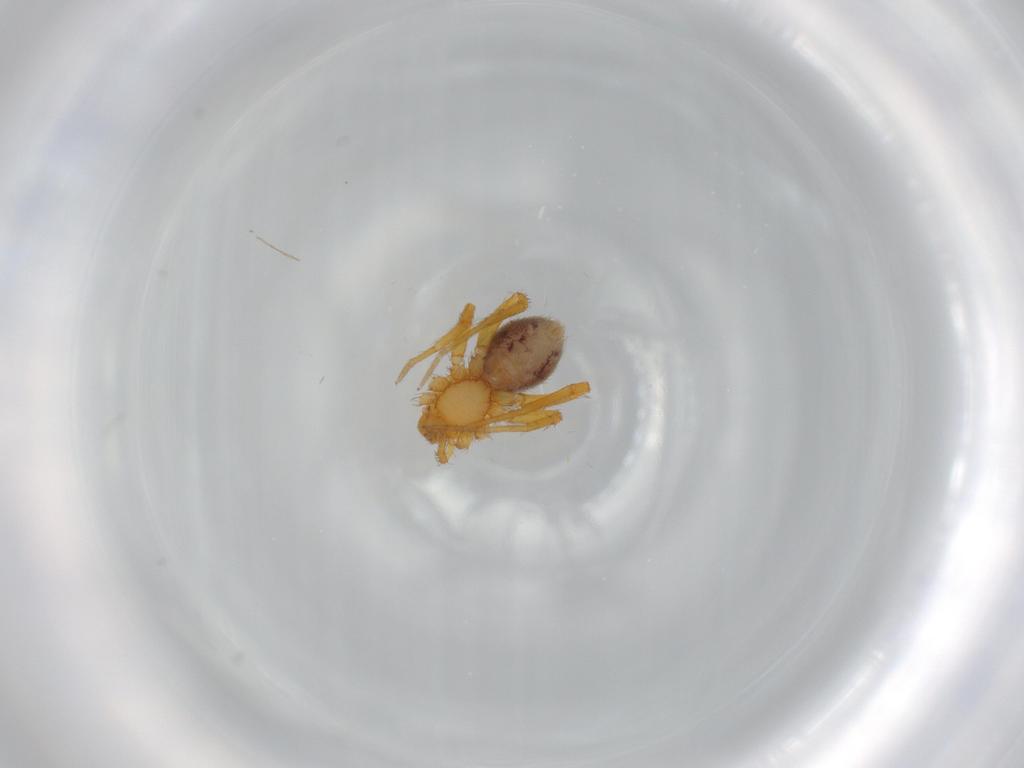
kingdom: Animalia
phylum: Arthropoda
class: Arachnida
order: Araneae
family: Oonopidae
